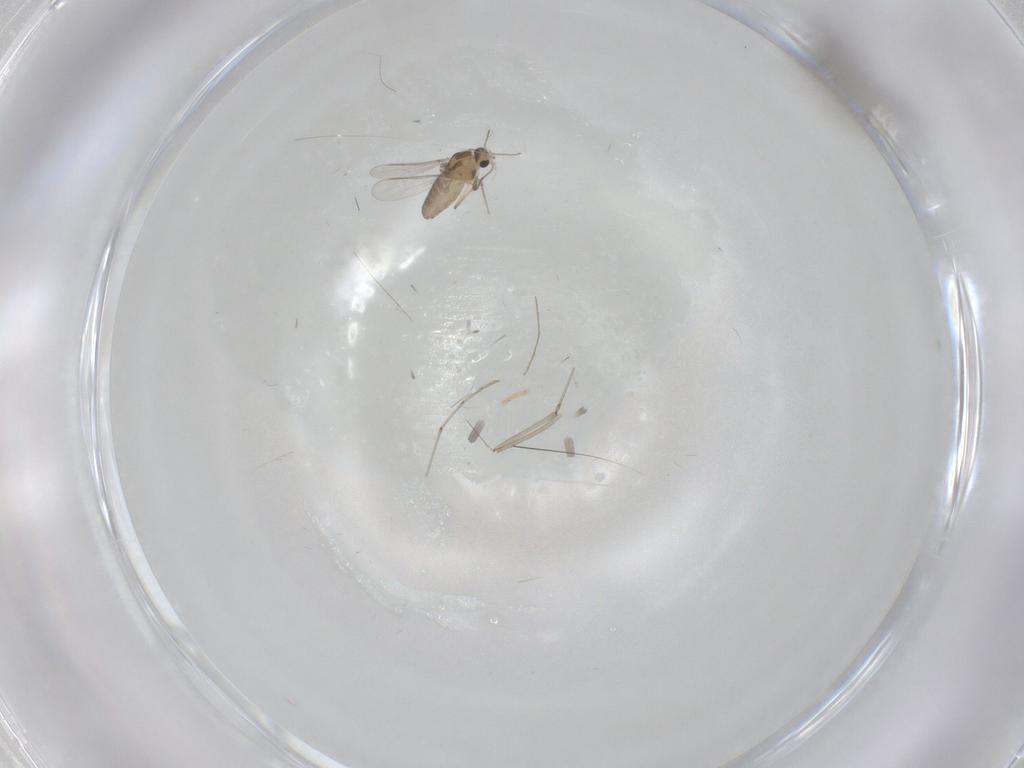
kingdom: Animalia
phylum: Arthropoda
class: Insecta
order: Diptera
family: Chironomidae
